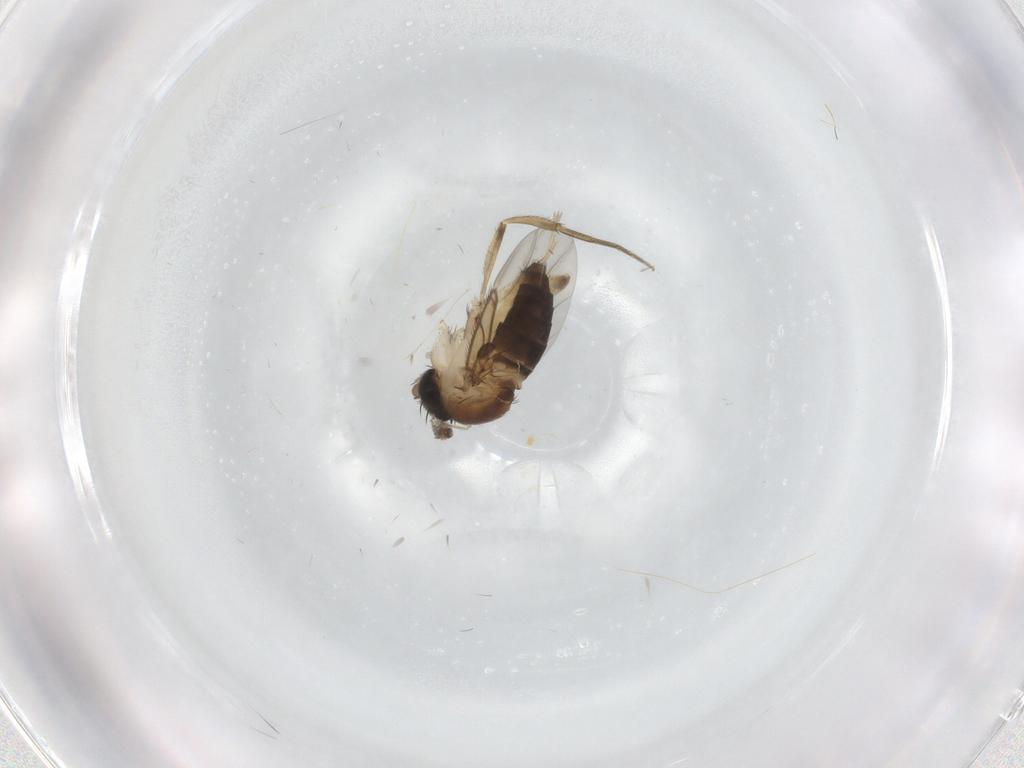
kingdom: Animalia
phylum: Arthropoda
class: Insecta
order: Diptera
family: Phoridae
